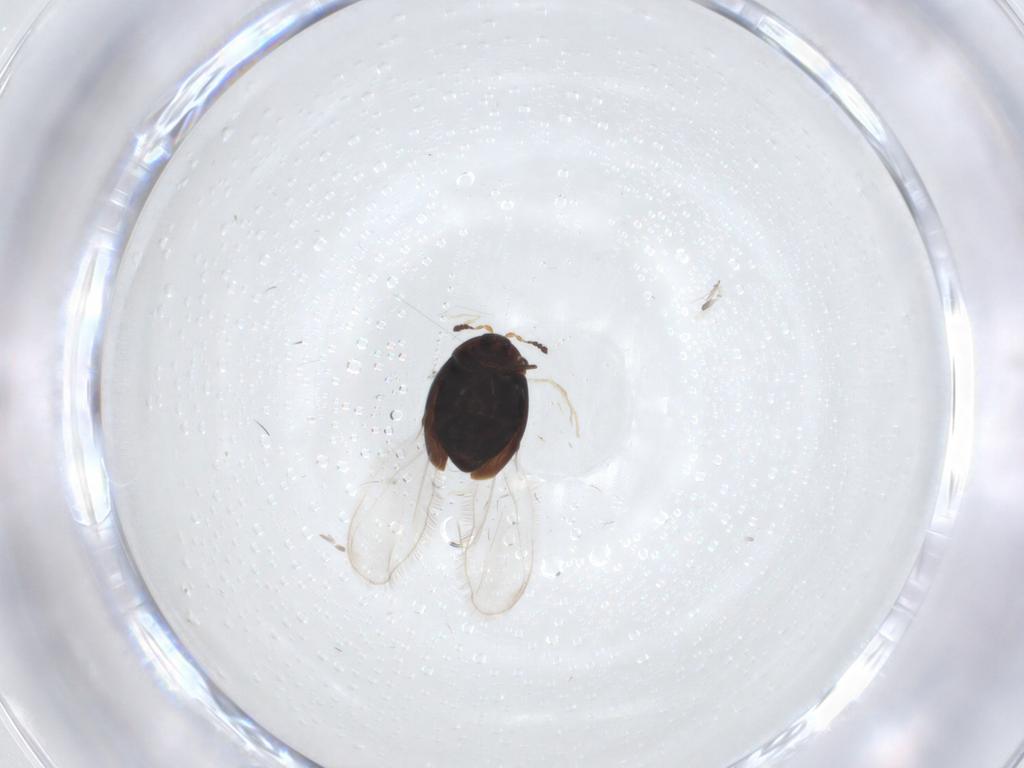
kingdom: Animalia
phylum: Arthropoda
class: Insecta
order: Coleoptera
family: Corylophidae
